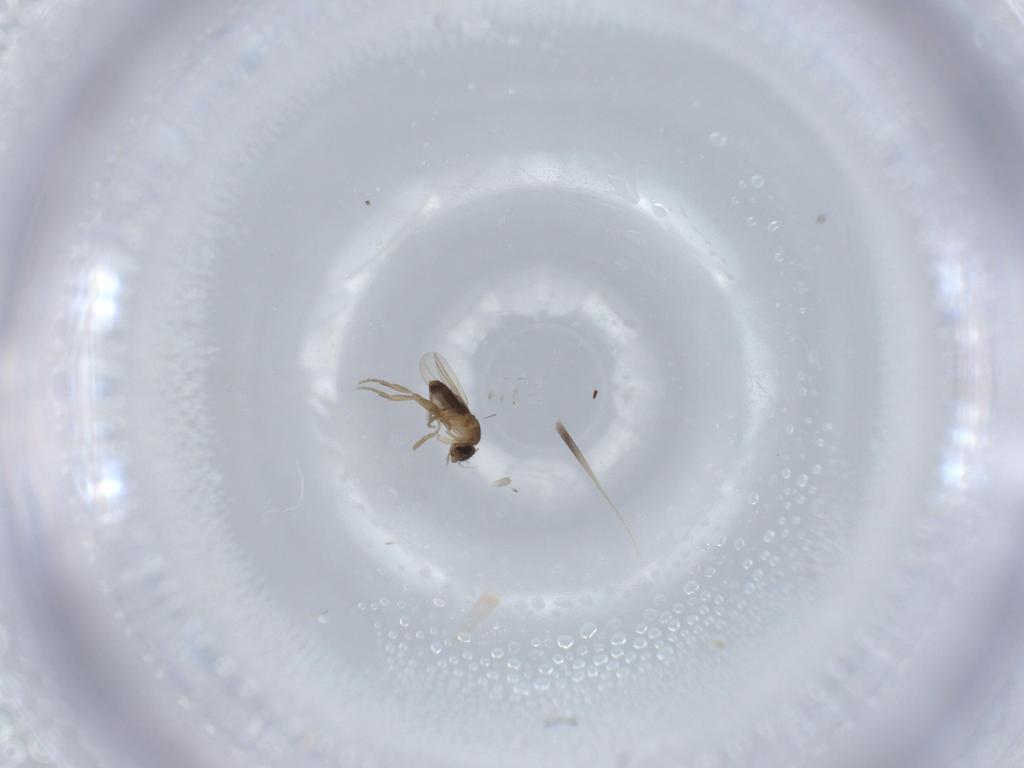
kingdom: Animalia
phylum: Arthropoda
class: Insecta
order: Diptera
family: Phoridae
